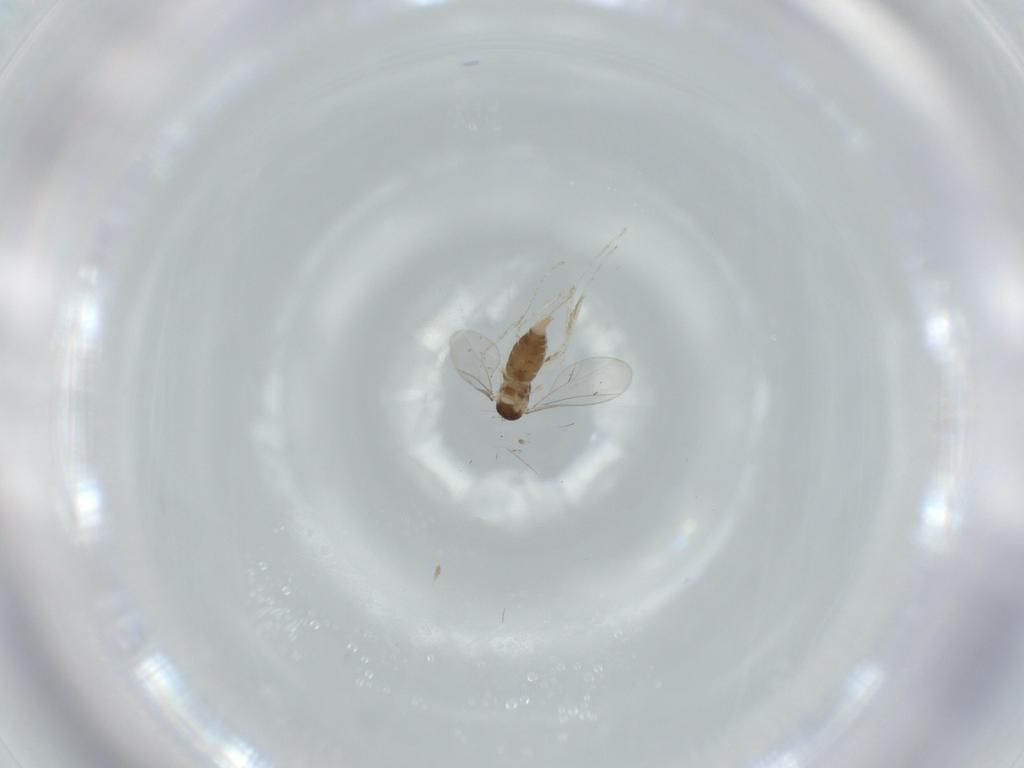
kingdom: Animalia
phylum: Arthropoda
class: Insecta
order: Diptera
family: Cecidomyiidae
